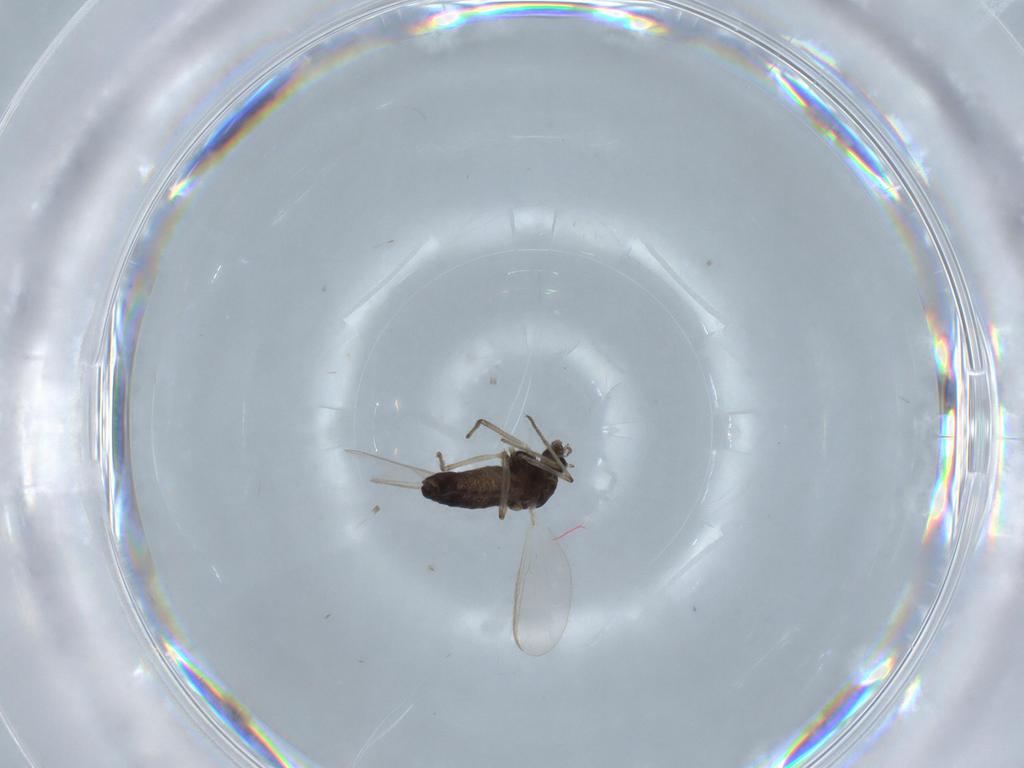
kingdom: Animalia
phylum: Arthropoda
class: Insecta
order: Diptera
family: Chironomidae
